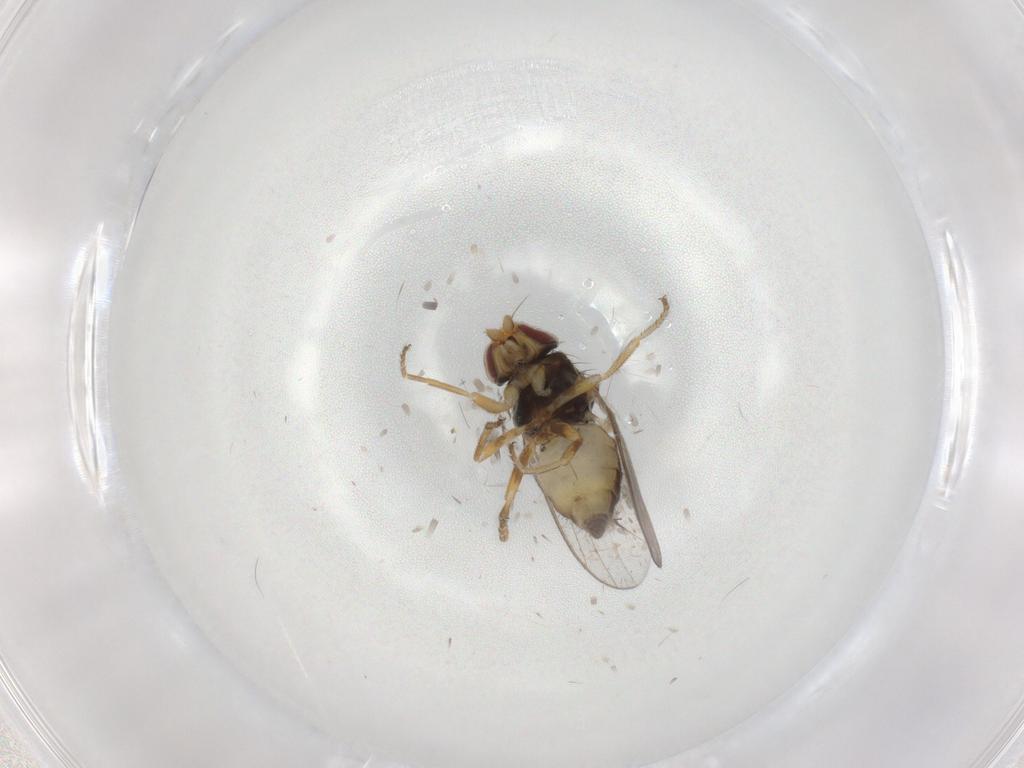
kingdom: Animalia
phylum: Arthropoda
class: Insecta
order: Diptera
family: Chloropidae
